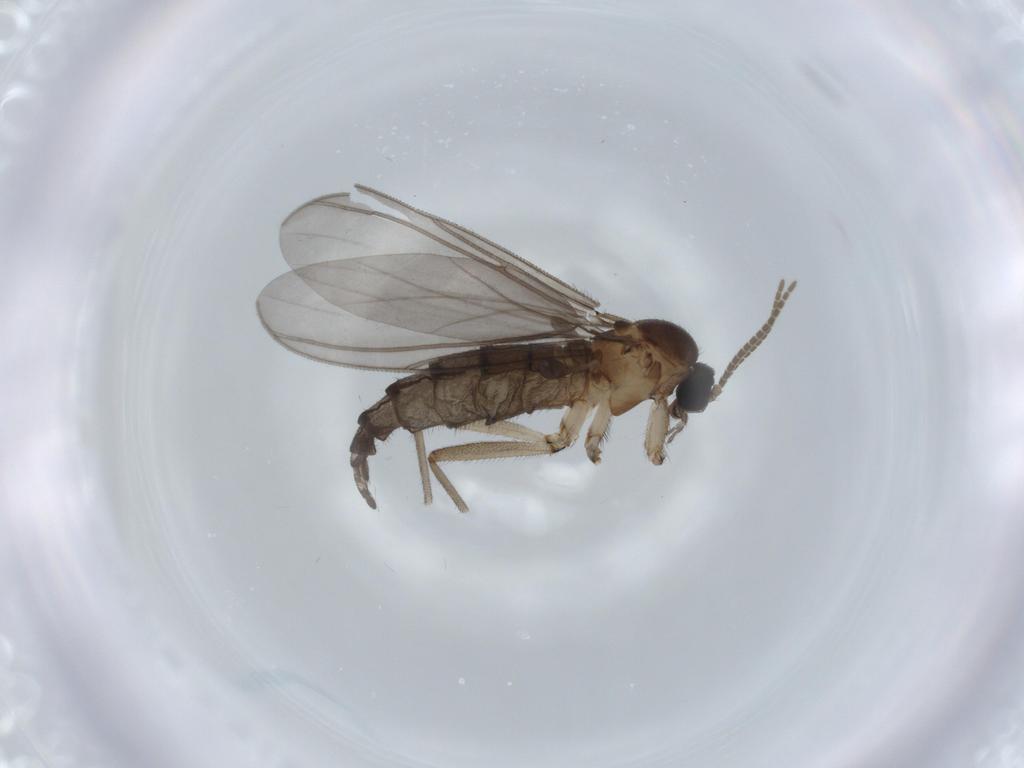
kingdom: Animalia
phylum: Arthropoda
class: Insecta
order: Diptera
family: Sciaridae
